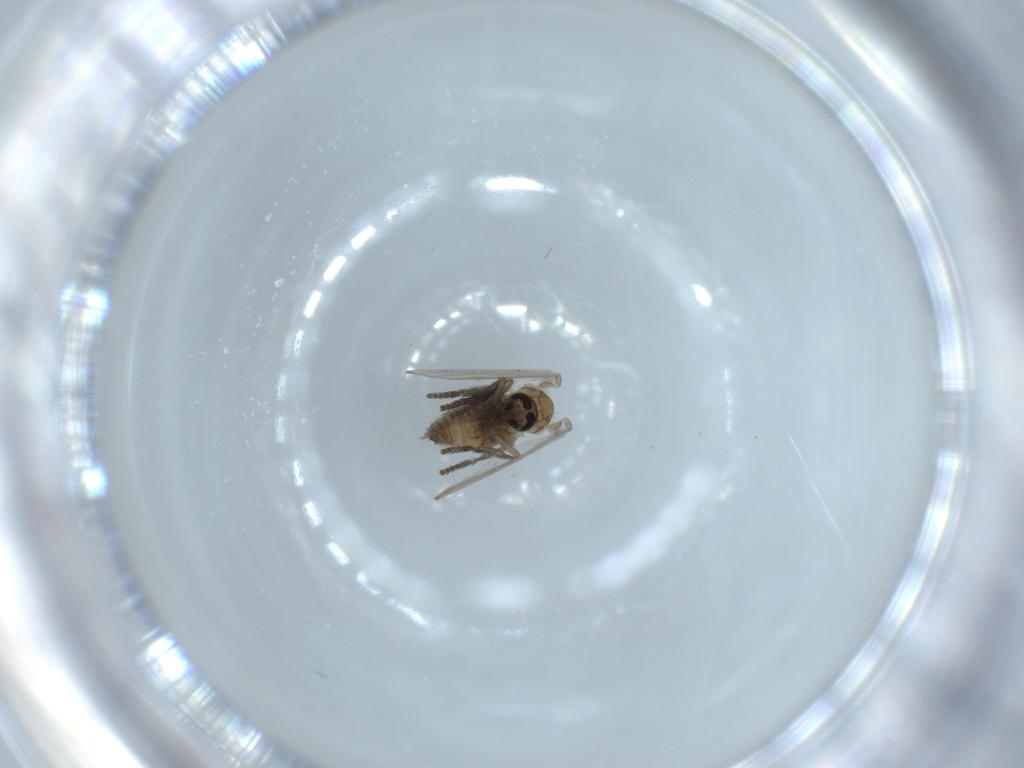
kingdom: Animalia
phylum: Arthropoda
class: Insecta
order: Diptera
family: Psychodidae
